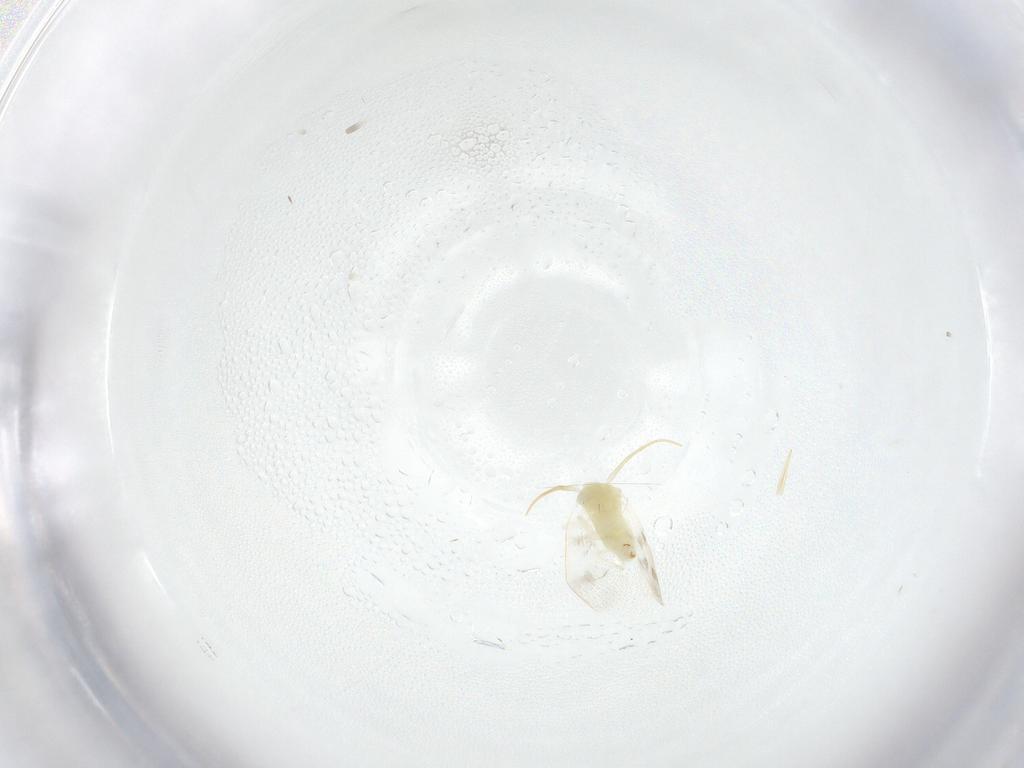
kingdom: Animalia
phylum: Arthropoda
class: Insecta
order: Hemiptera
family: Aleyrodidae
